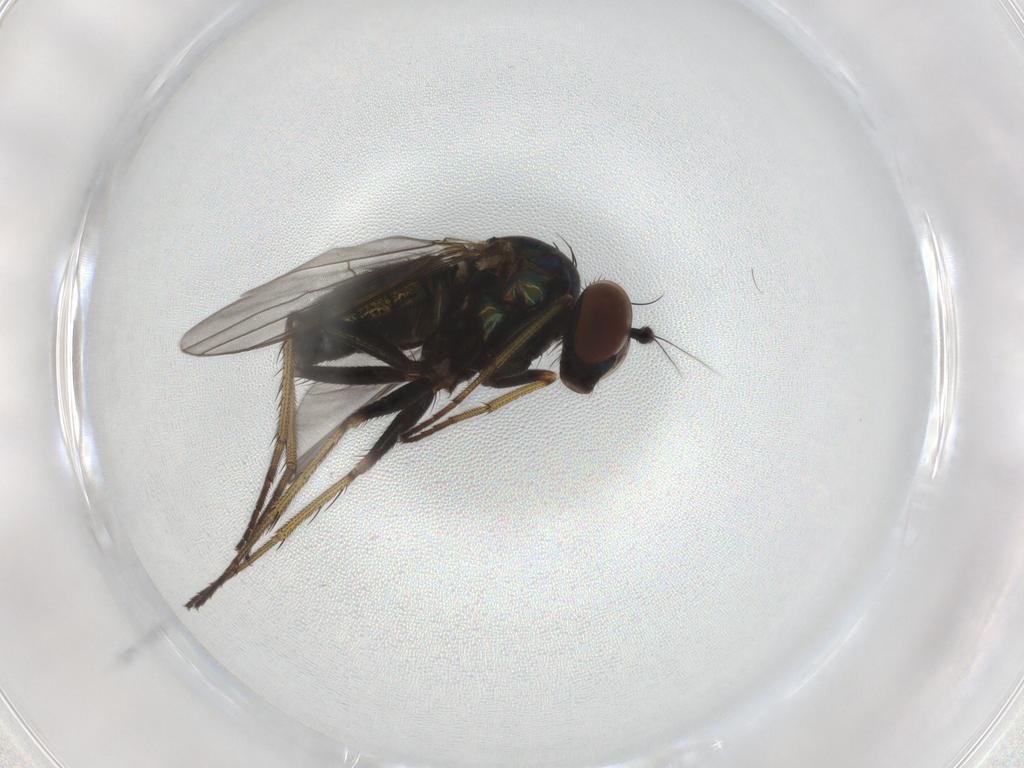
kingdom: Animalia
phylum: Arthropoda
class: Insecta
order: Diptera
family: Dolichopodidae
